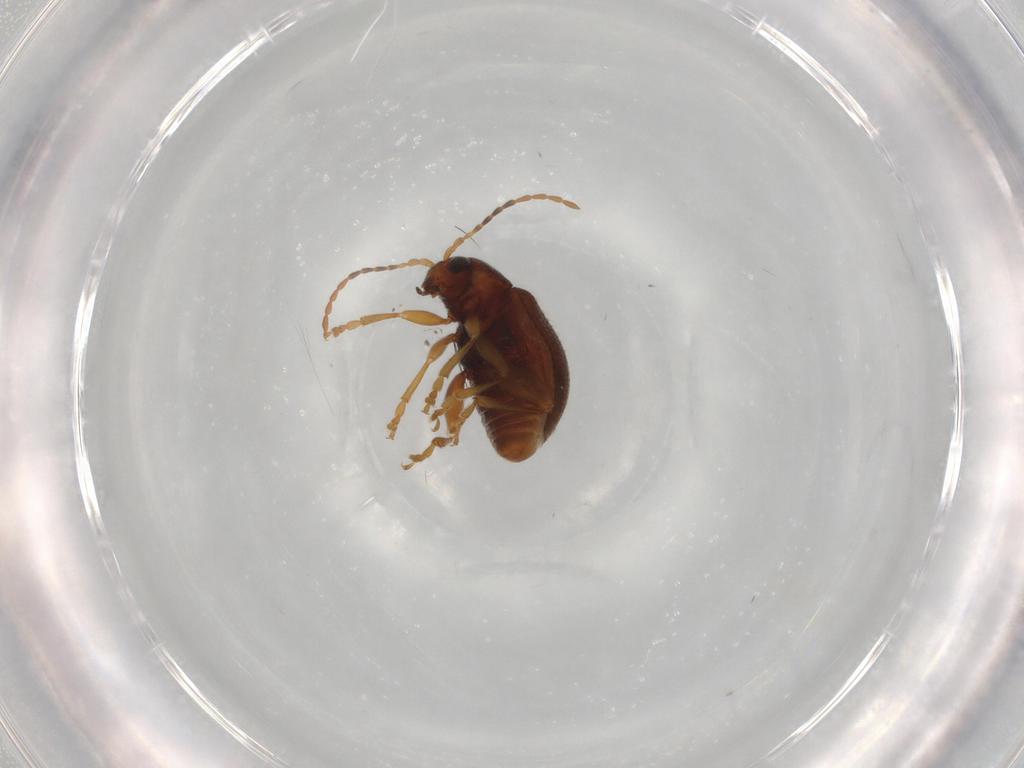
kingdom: Animalia
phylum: Arthropoda
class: Insecta
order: Coleoptera
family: Chrysomelidae
